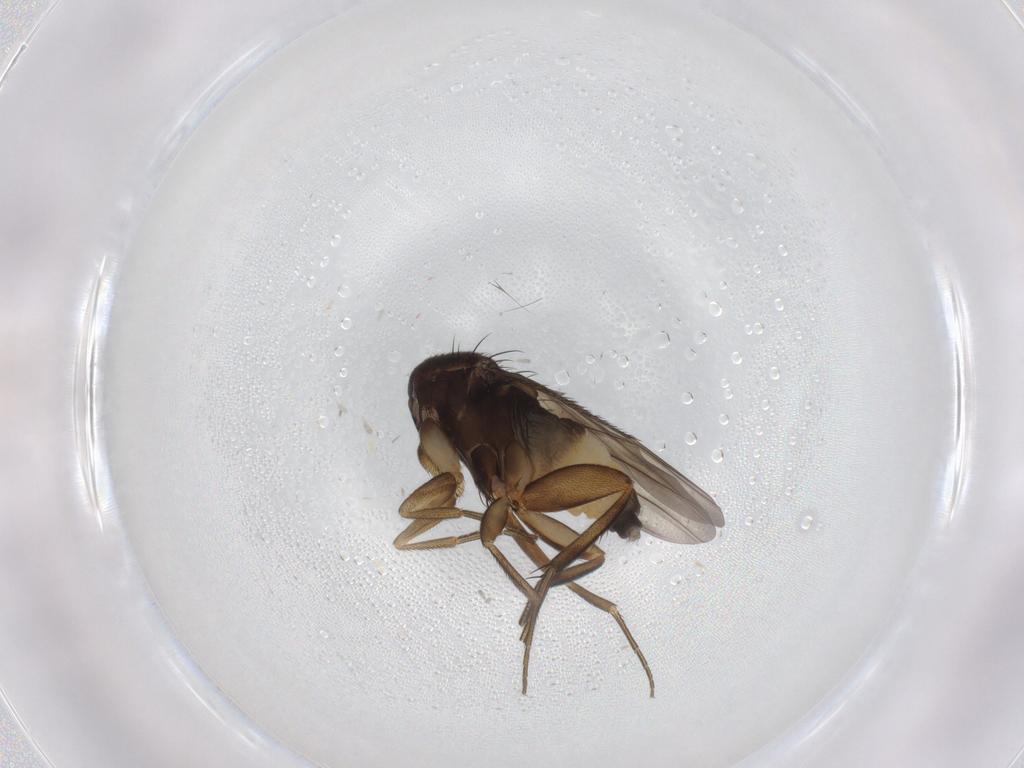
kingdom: Animalia
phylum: Arthropoda
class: Insecta
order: Diptera
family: Phoridae
